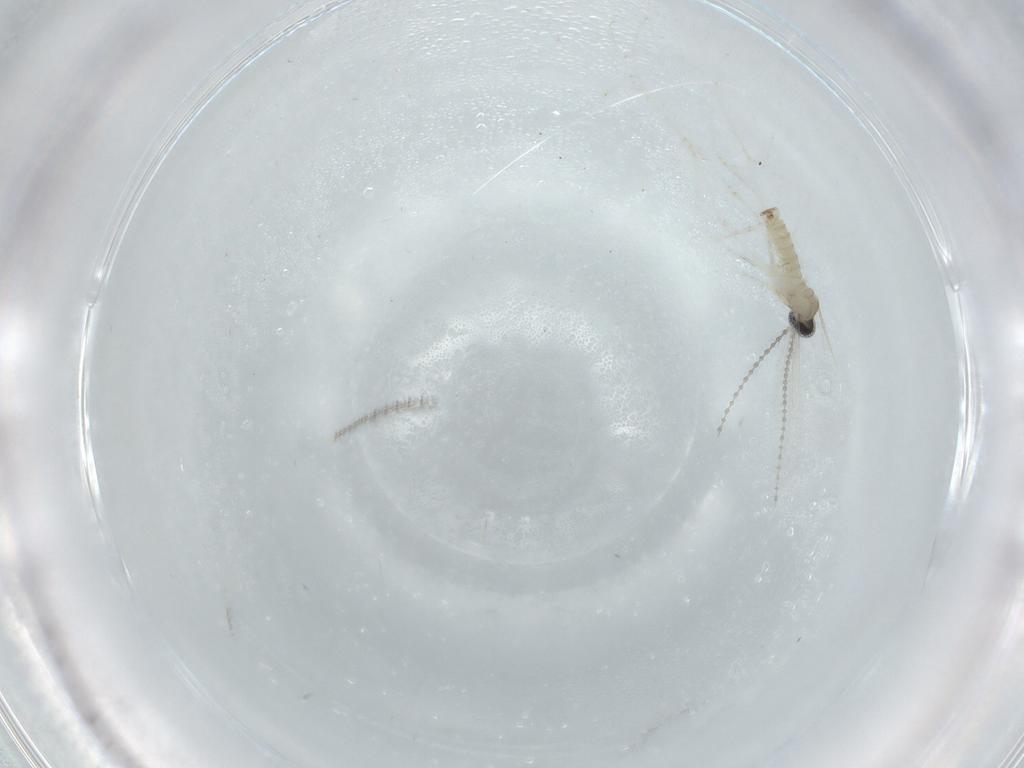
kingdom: Animalia
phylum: Arthropoda
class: Insecta
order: Diptera
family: Cecidomyiidae
